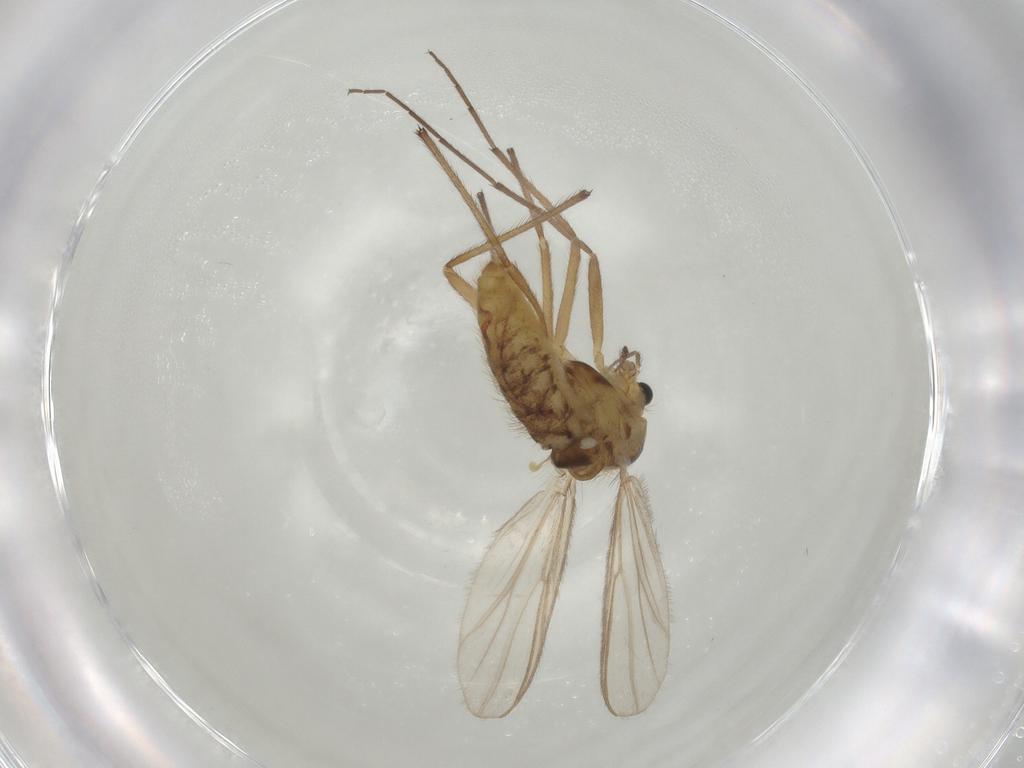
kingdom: Animalia
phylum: Arthropoda
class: Insecta
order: Diptera
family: Chironomidae
